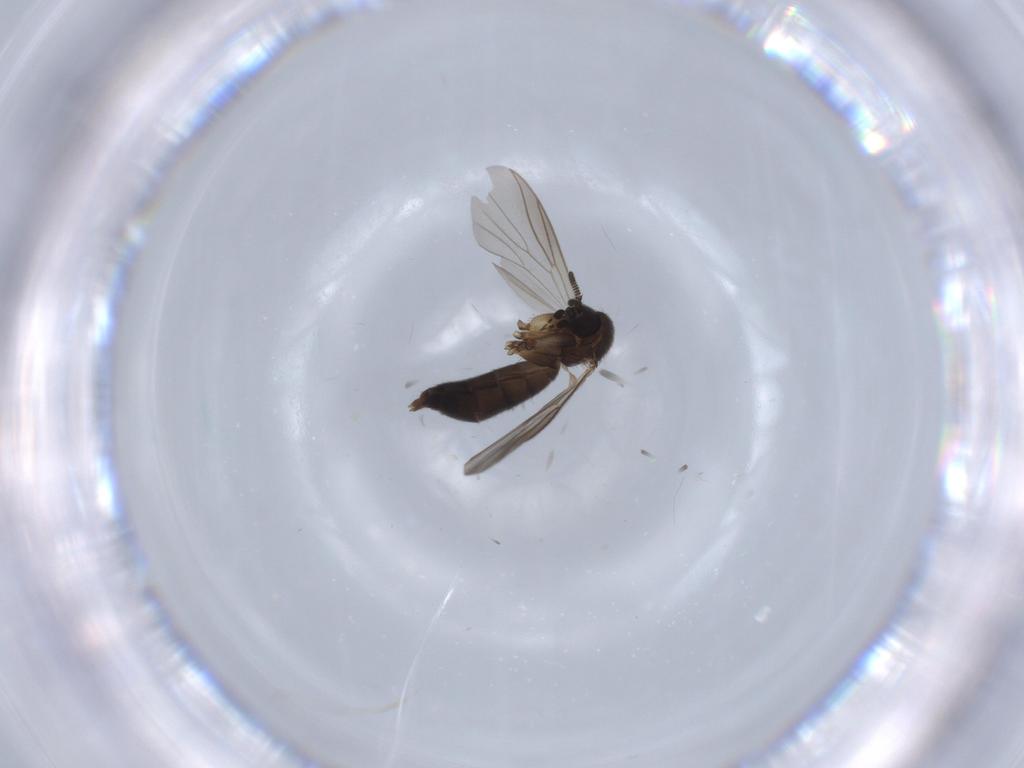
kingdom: Animalia
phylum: Arthropoda
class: Insecta
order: Diptera
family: Mycetophilidae
